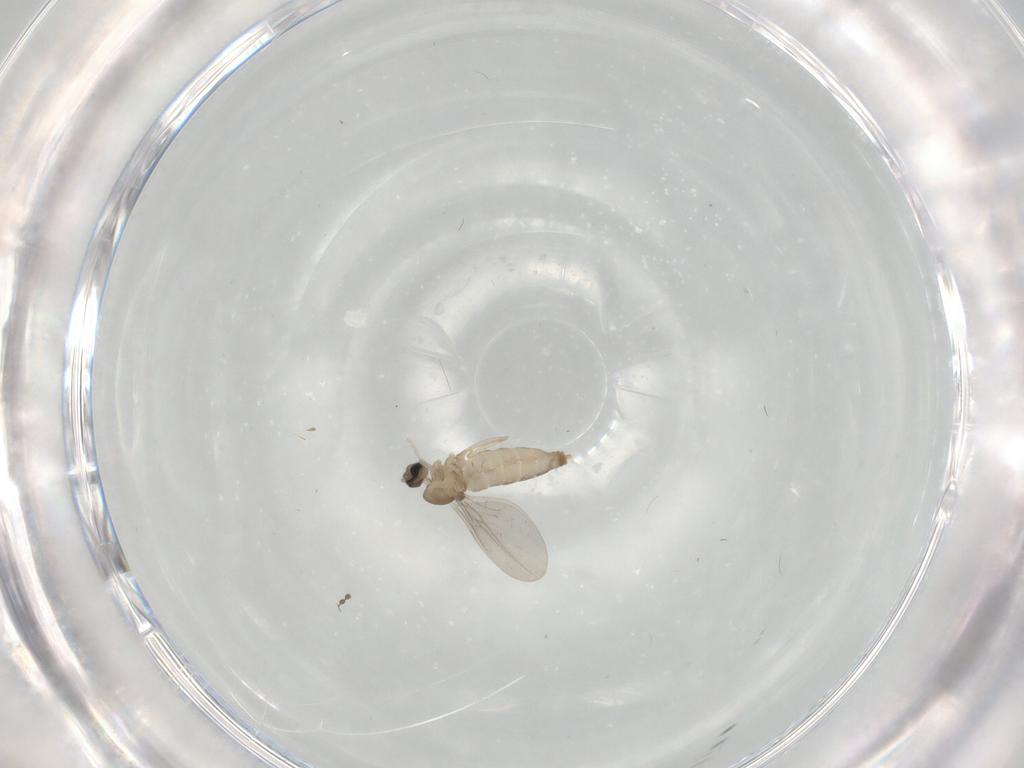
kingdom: Animalia
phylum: Arthropoda
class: Insecta
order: Diptera
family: Cecidomyiidae
